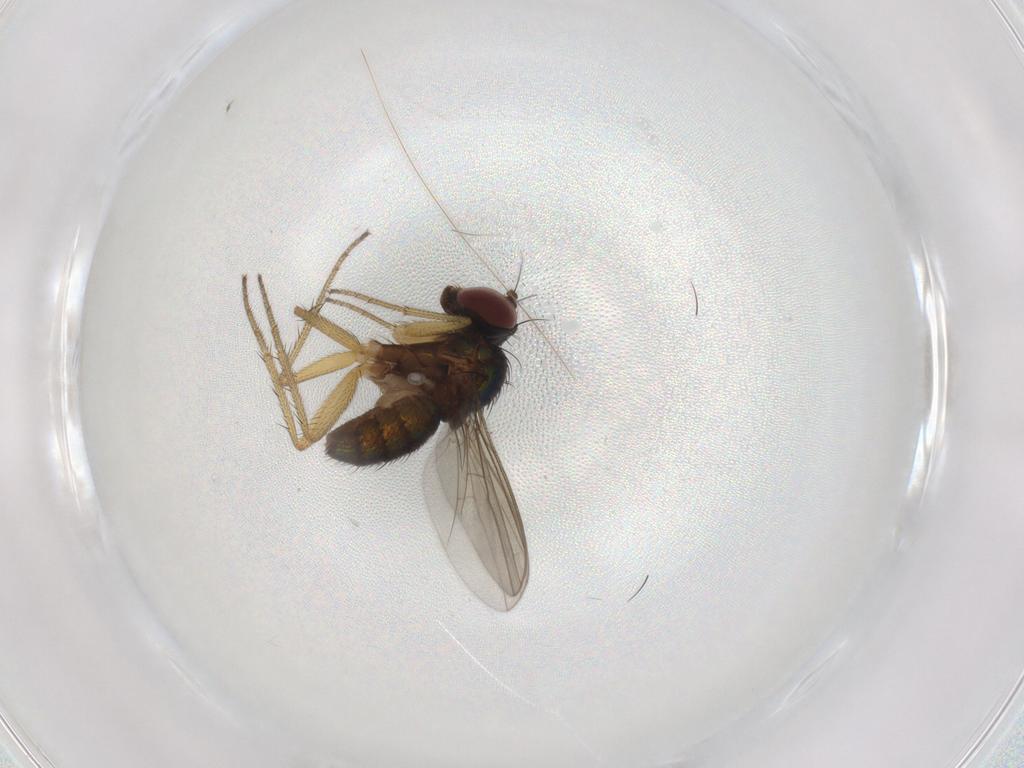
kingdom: Animalia
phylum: Arthropoda
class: Insecta
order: Diptera
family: Dolichopodidae
